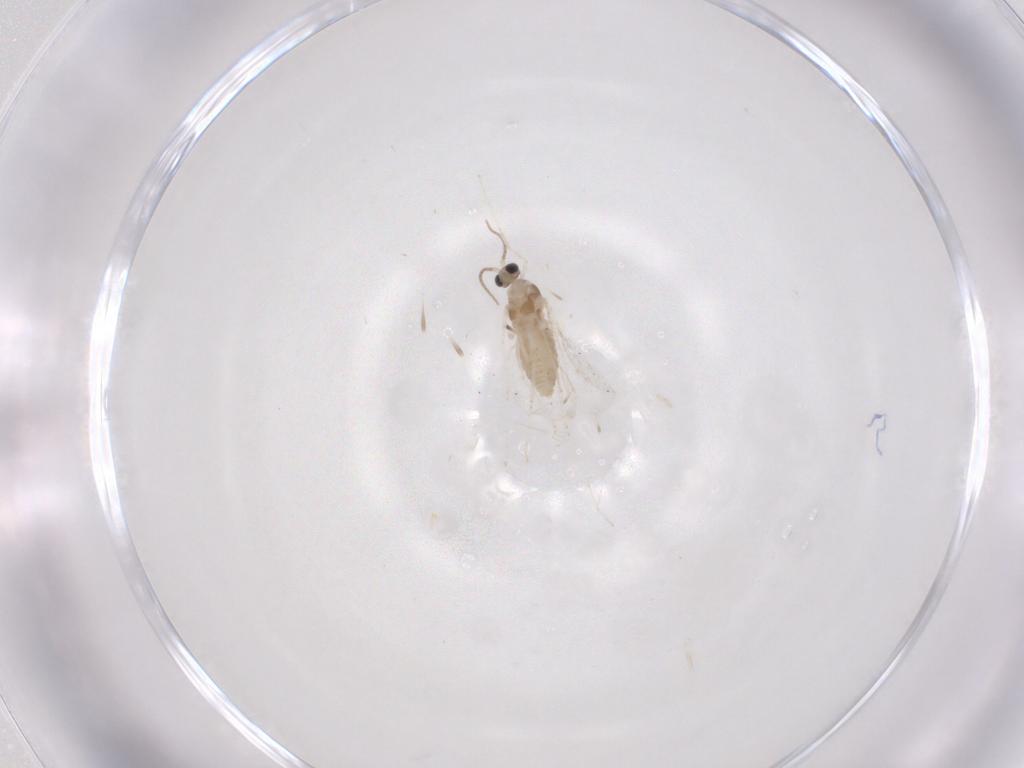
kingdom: Animalia
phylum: Arthropoda
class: Insecta
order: Diptera
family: Cecidomyiidae
